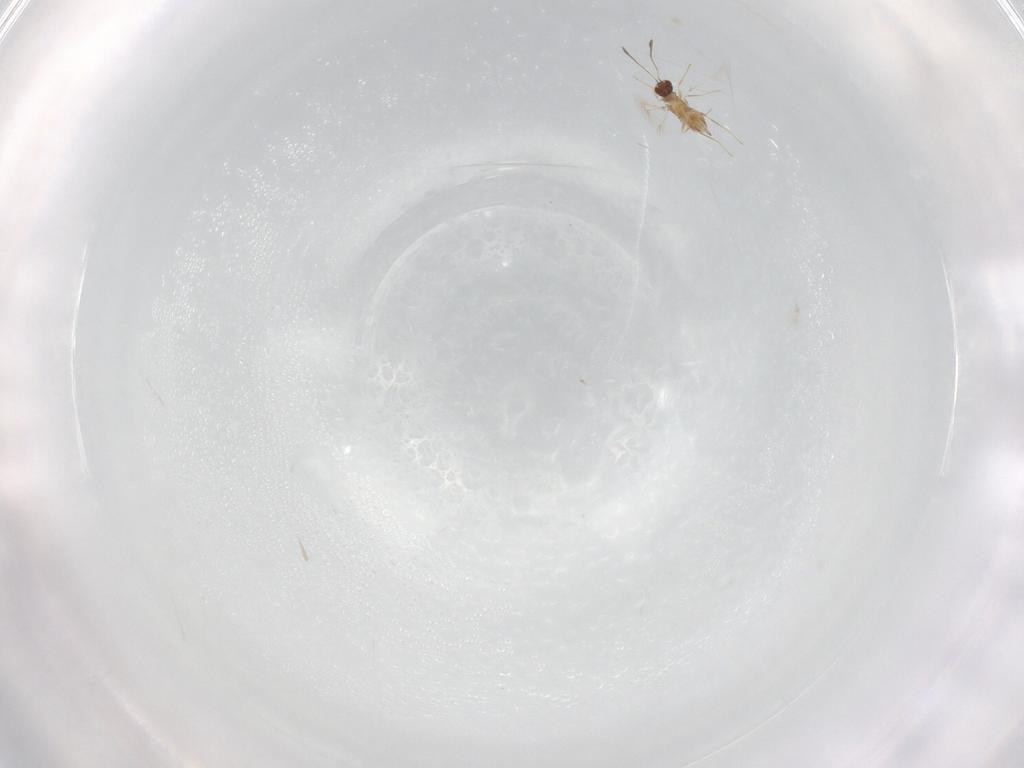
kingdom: Animalia
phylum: Arthropoda
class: Insecta
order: Hymenoptera
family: Mymaridae
